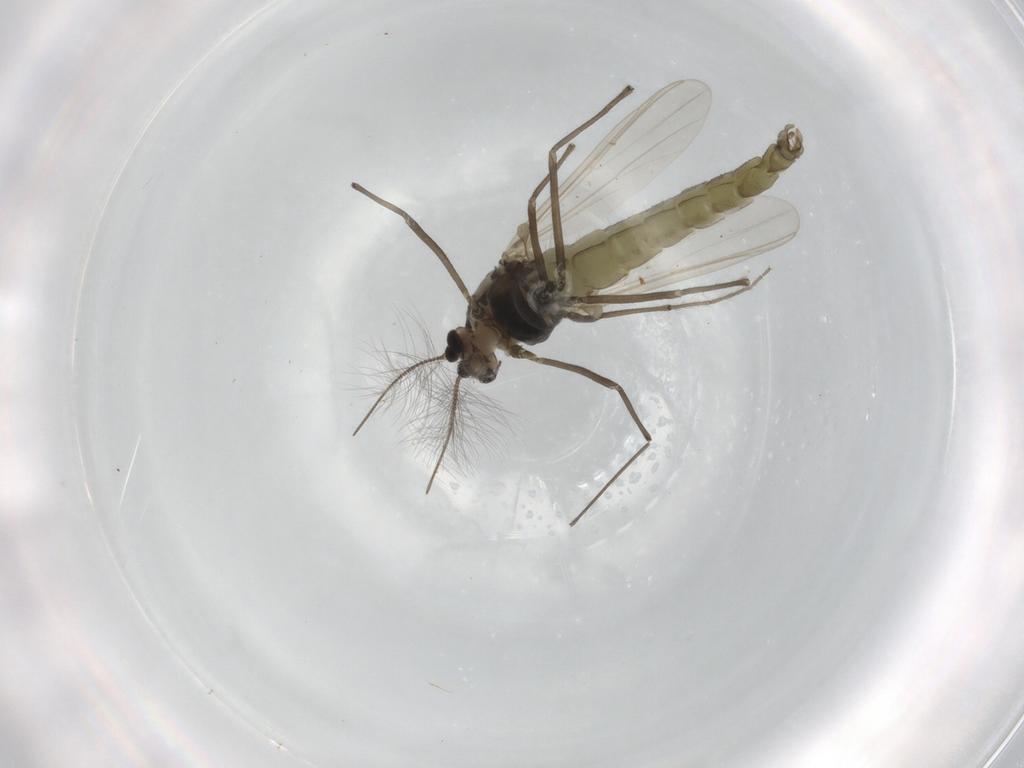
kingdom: Animalia
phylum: Arthropoda
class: Insecta
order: Diptera
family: Chironomidae
